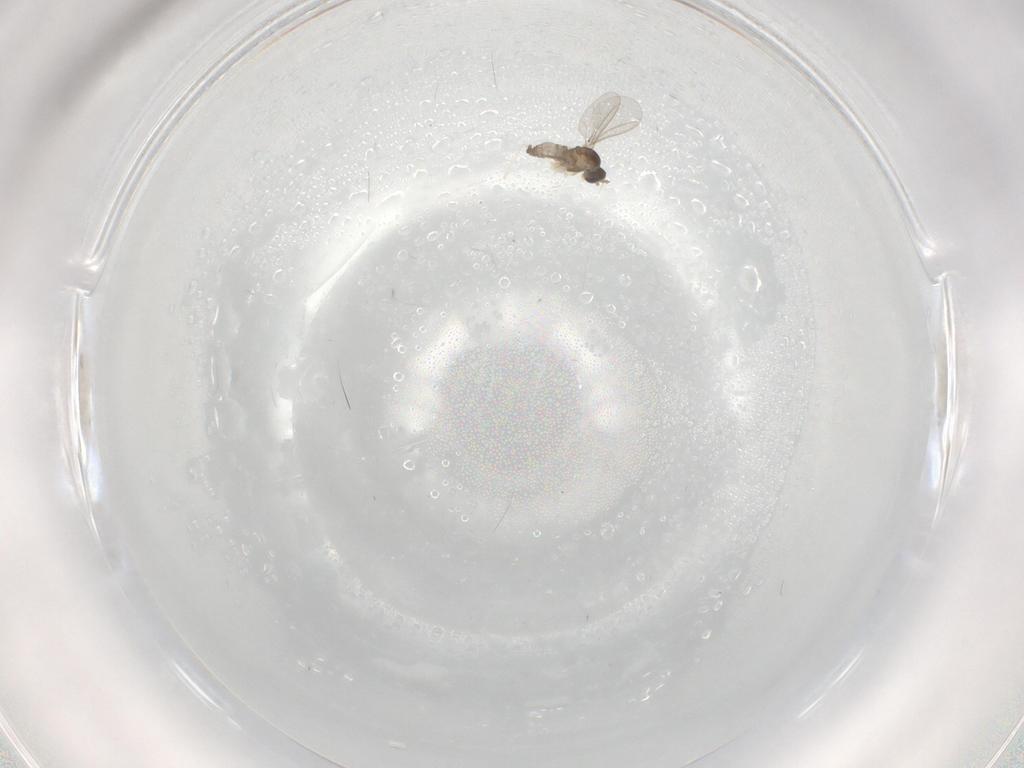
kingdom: Animalia
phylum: Arthropoda
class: Insecta
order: Diptera
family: Cecidomyiidae
